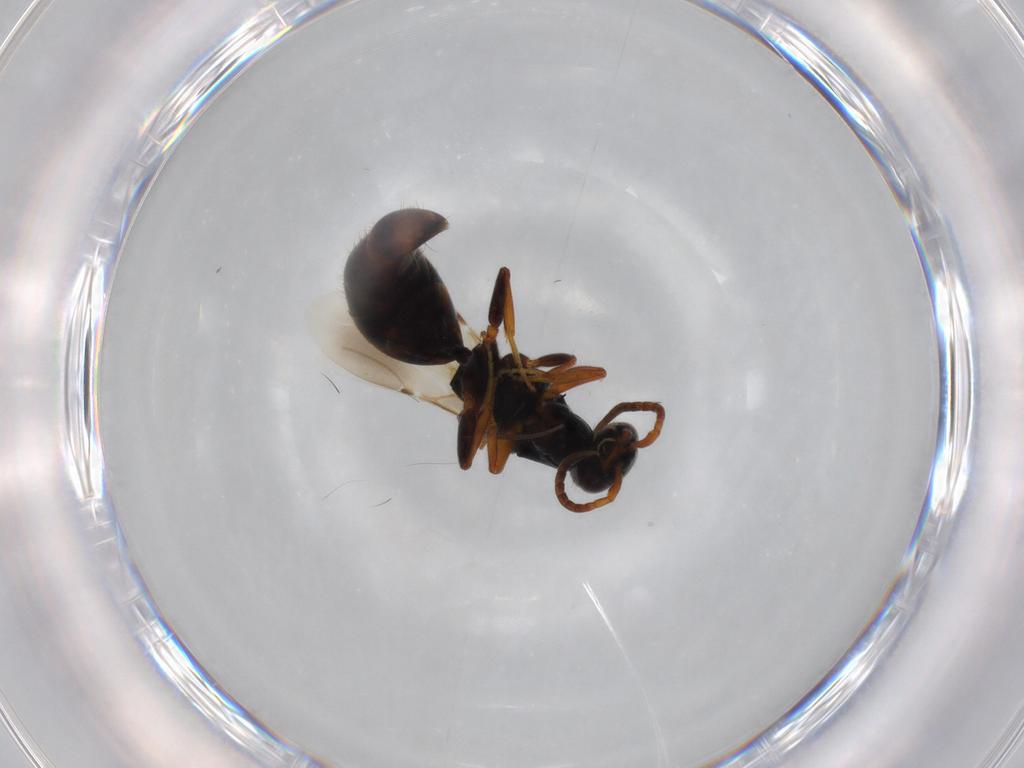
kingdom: Animalia
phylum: Arthropoda
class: Insecta
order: Hymenoptera
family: Bethylidae
